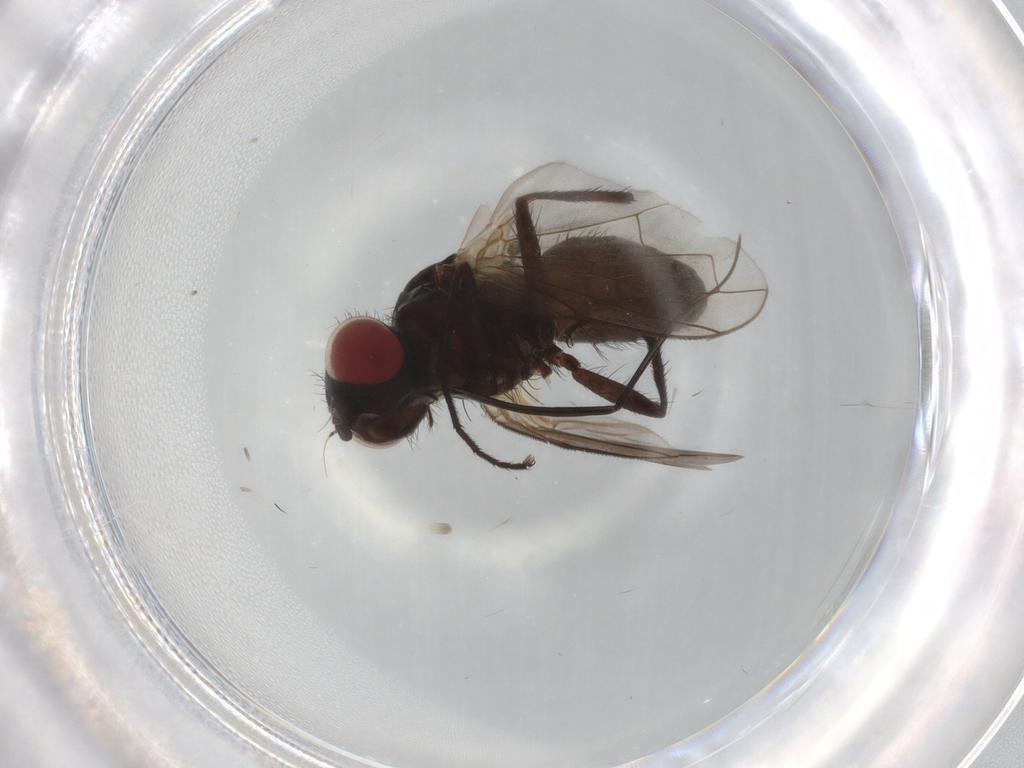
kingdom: Animalia
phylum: Arthropoda
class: Insecta
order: Diptera
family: Tachinidae
